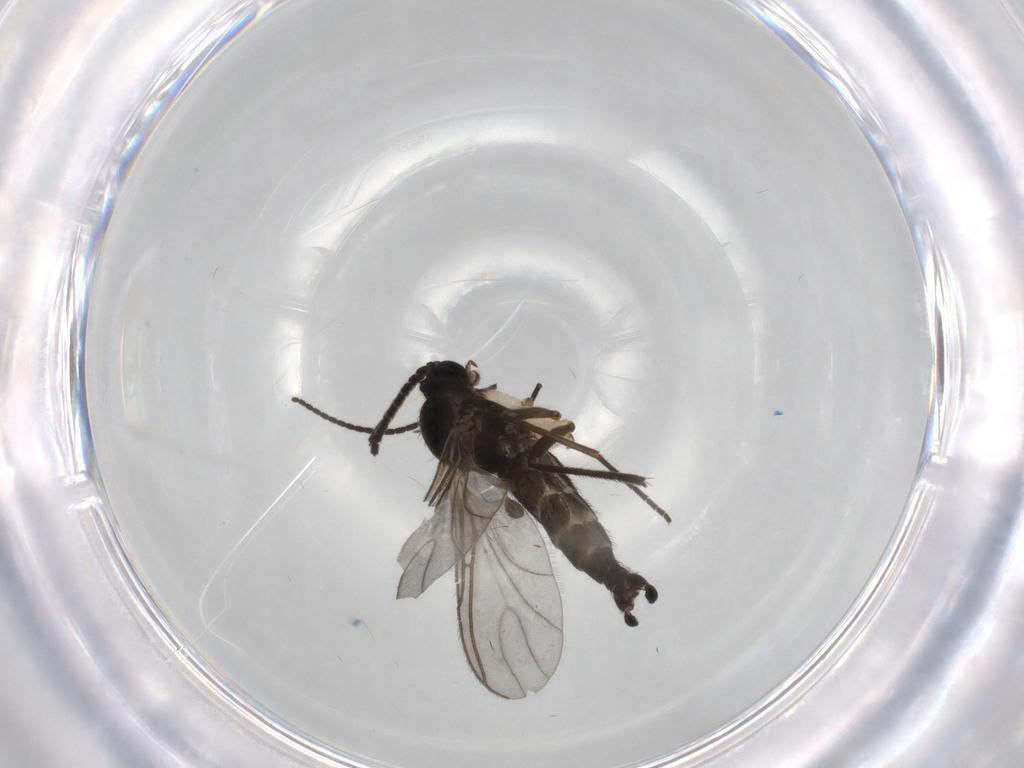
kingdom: Animalia
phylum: Arthropoda
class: Insecta
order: Diptera
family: Sciaridae
